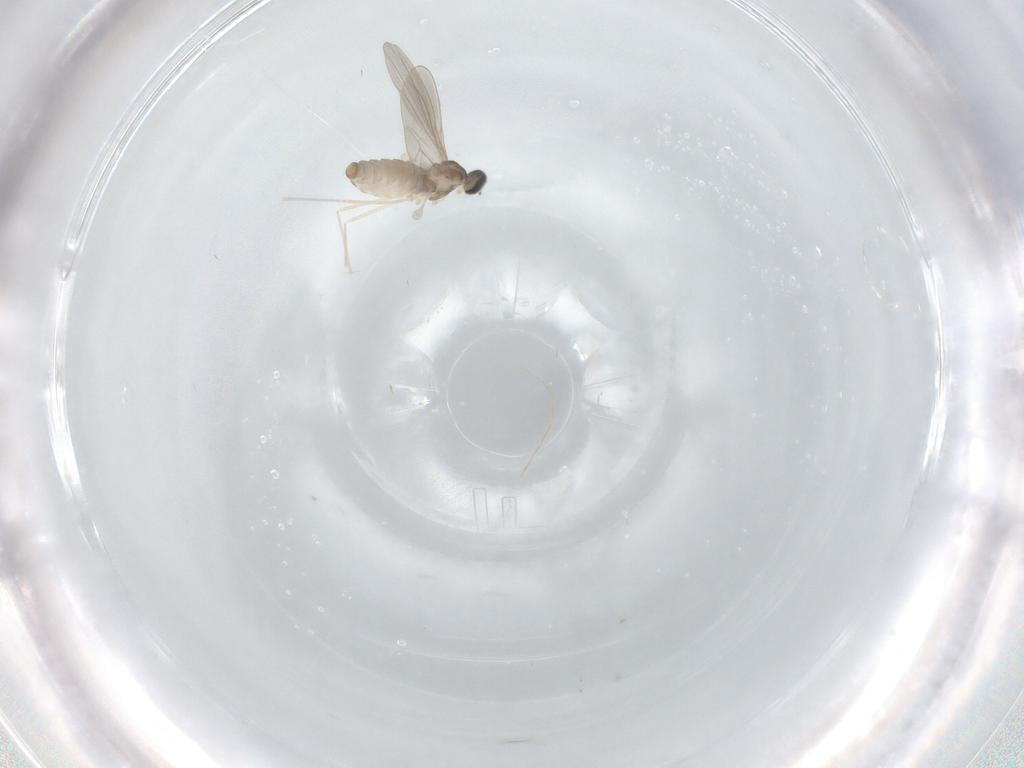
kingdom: Animalia
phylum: Arthropoda
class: Insecta
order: Diptera
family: Cecidomyiidae
